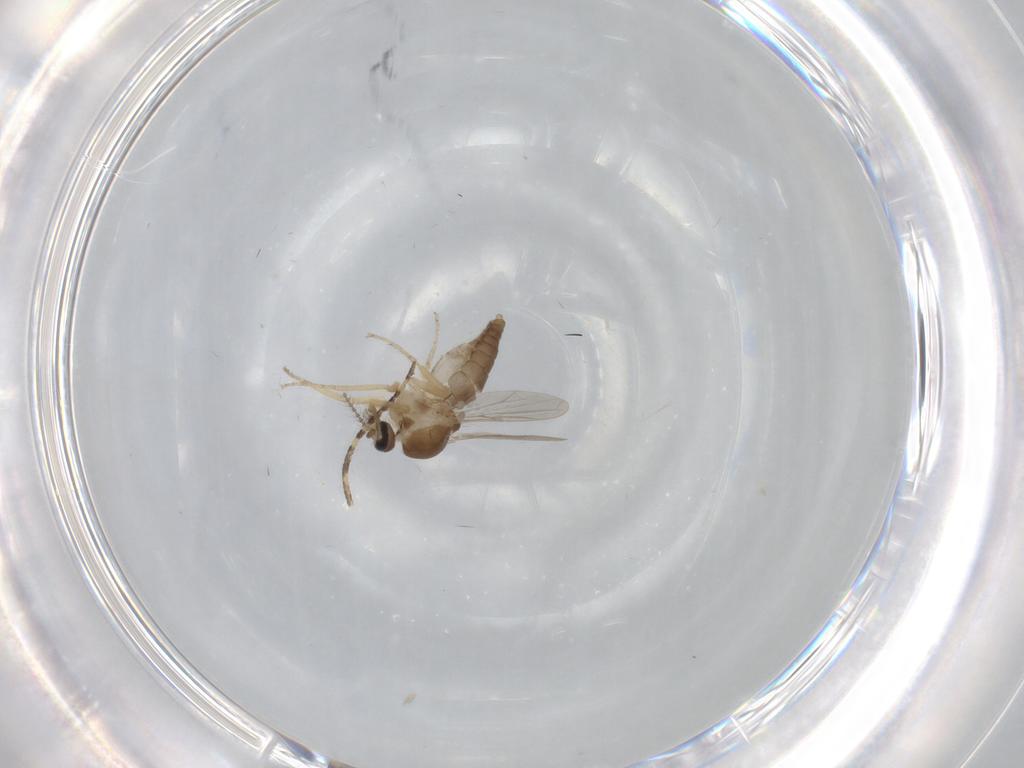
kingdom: Animalia
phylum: Arthropoda
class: Insecta
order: Diptera
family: Ceratopogonidae
